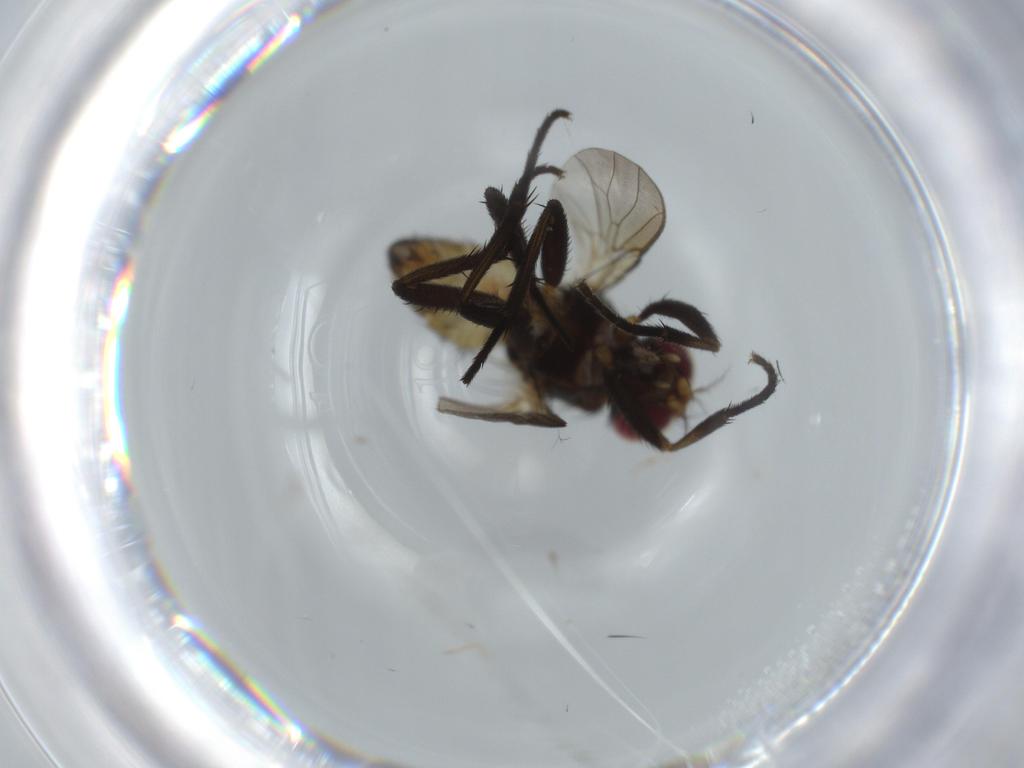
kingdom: Animalia
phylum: Arthropoda
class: Insecta
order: Diptera
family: Anthomyiidae
